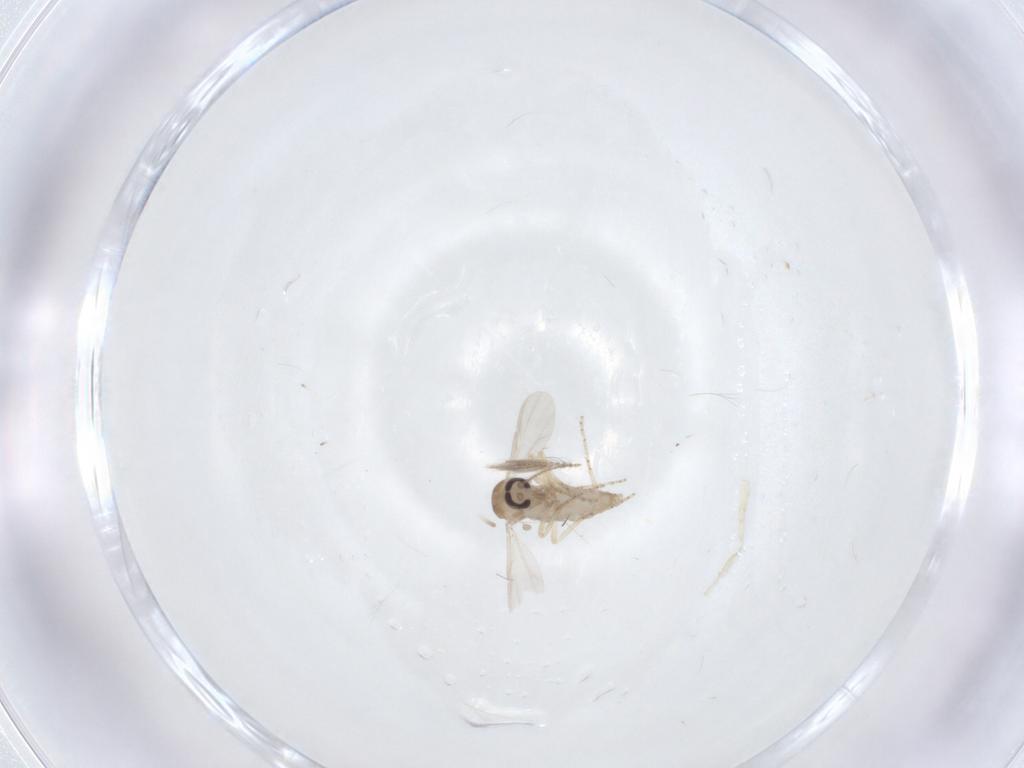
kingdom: Animalia
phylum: Arthropoda
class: Insecta
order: Diptera
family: Ceratopogonidae
